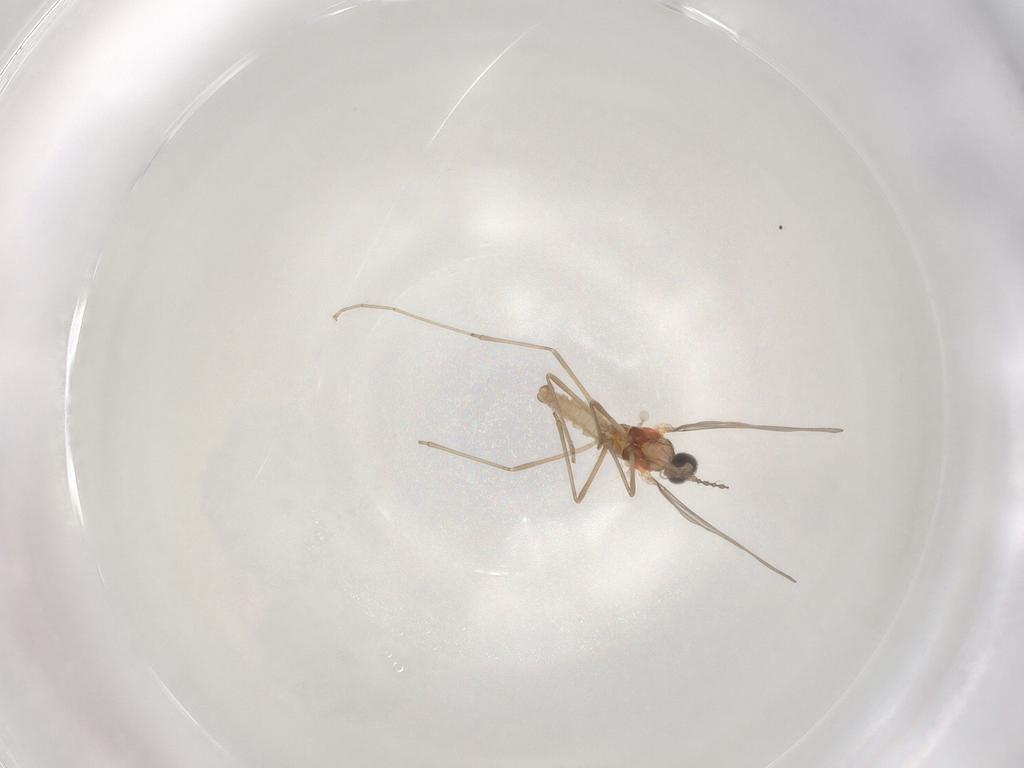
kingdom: Animalia
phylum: Arthropoda
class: Insecta
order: Diptera
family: Cecidomyiidae
